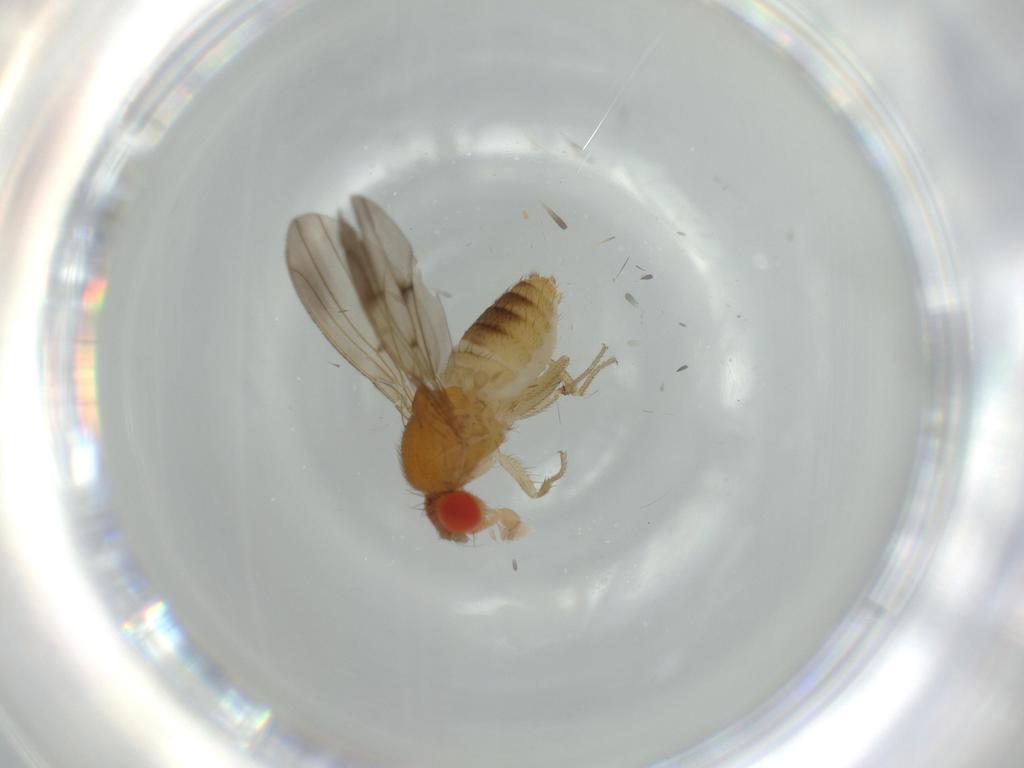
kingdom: Animalia
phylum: Arthropoda
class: Insecta
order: Diptera
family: Drosophilidae
